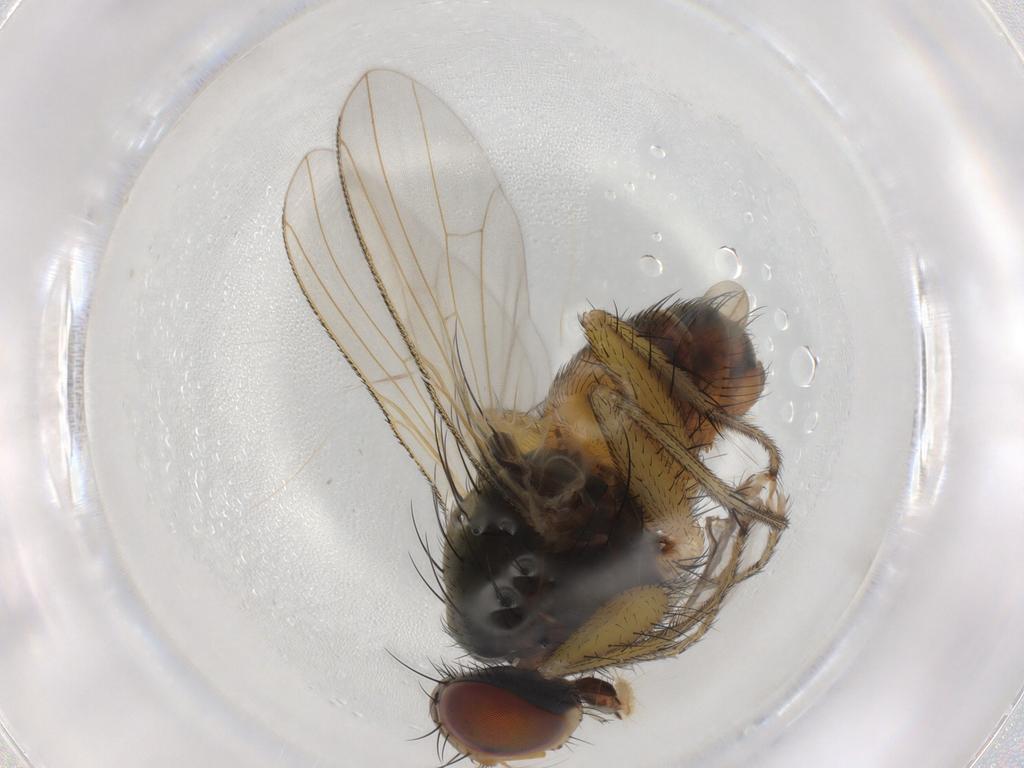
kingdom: Animalia
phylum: Arthropoda
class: Insecta
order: Diptera
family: Muscidae
